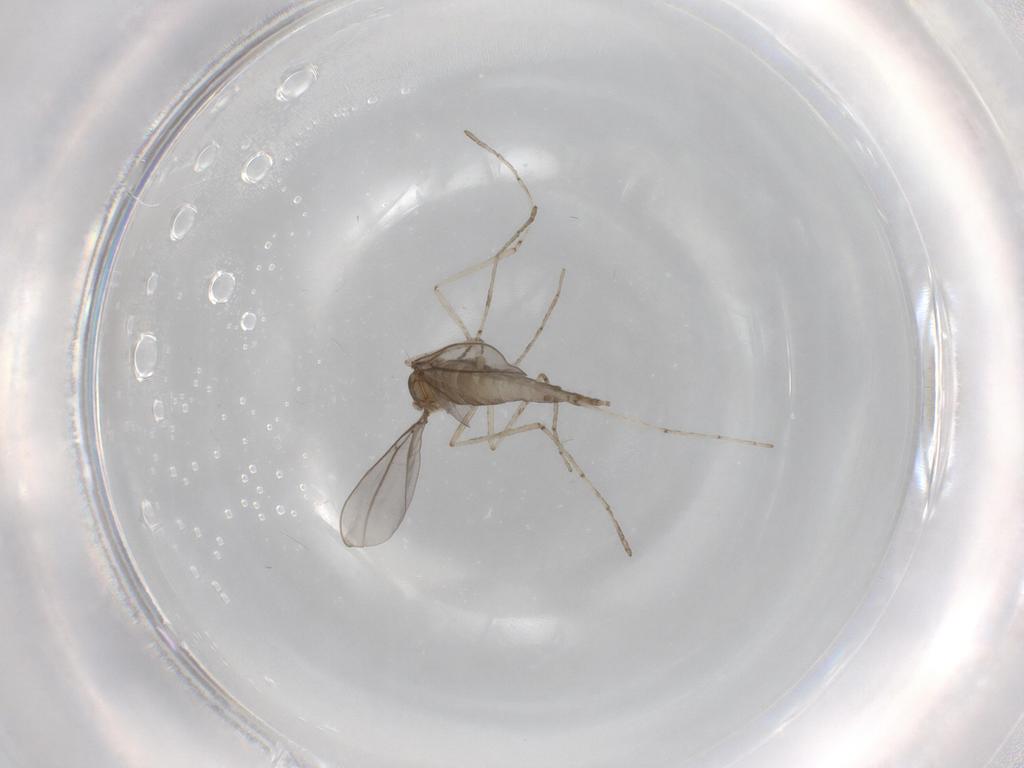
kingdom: Animalia
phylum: Arthropoda
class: Insecta
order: Diptera
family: Cecidomyiidae
